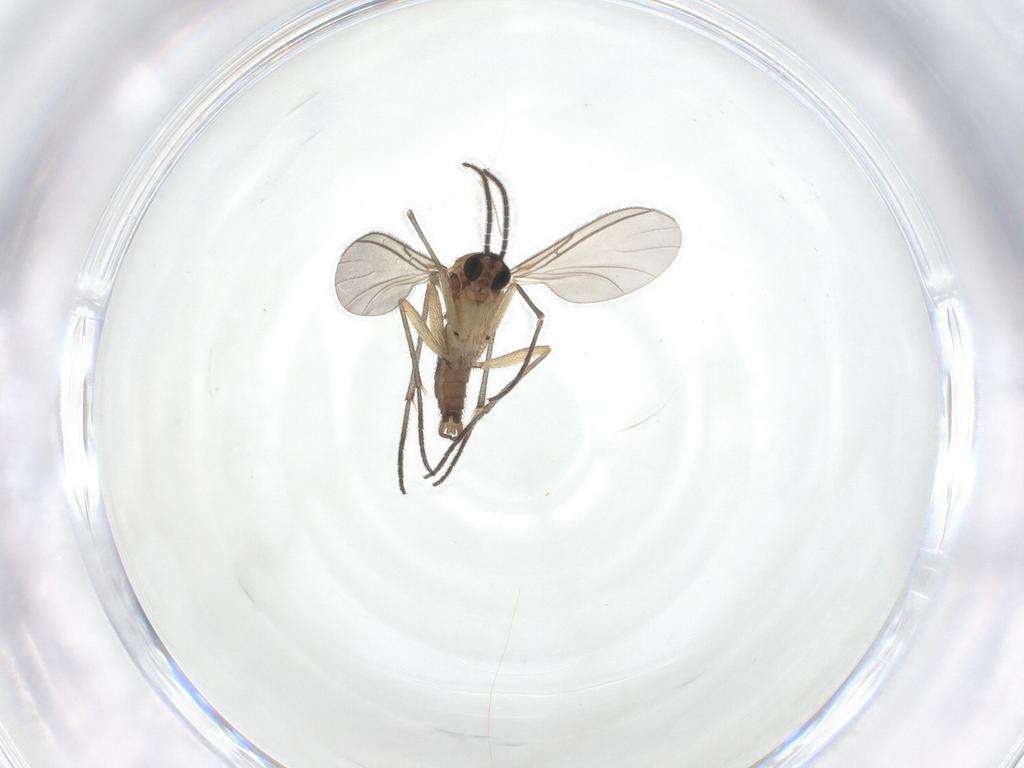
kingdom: Animalia
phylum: Arthropoda
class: Insecta
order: Diptera
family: Sciaridae
